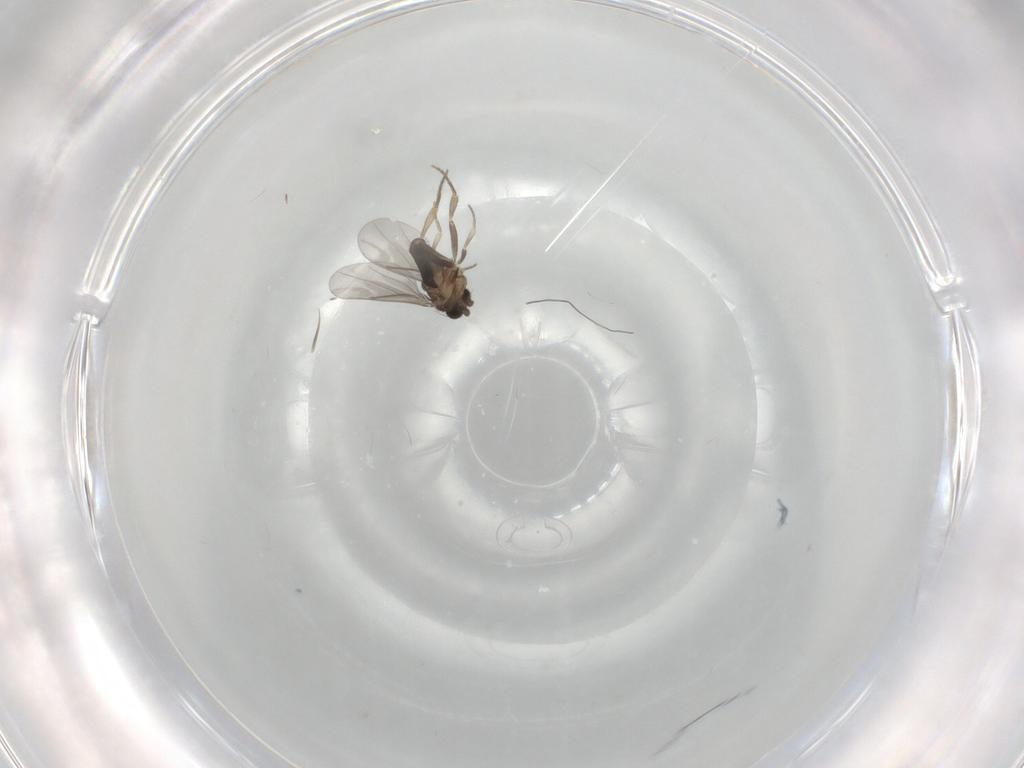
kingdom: Animalia
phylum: Arthropoda
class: Insecta
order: Diptera
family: Phoridae
